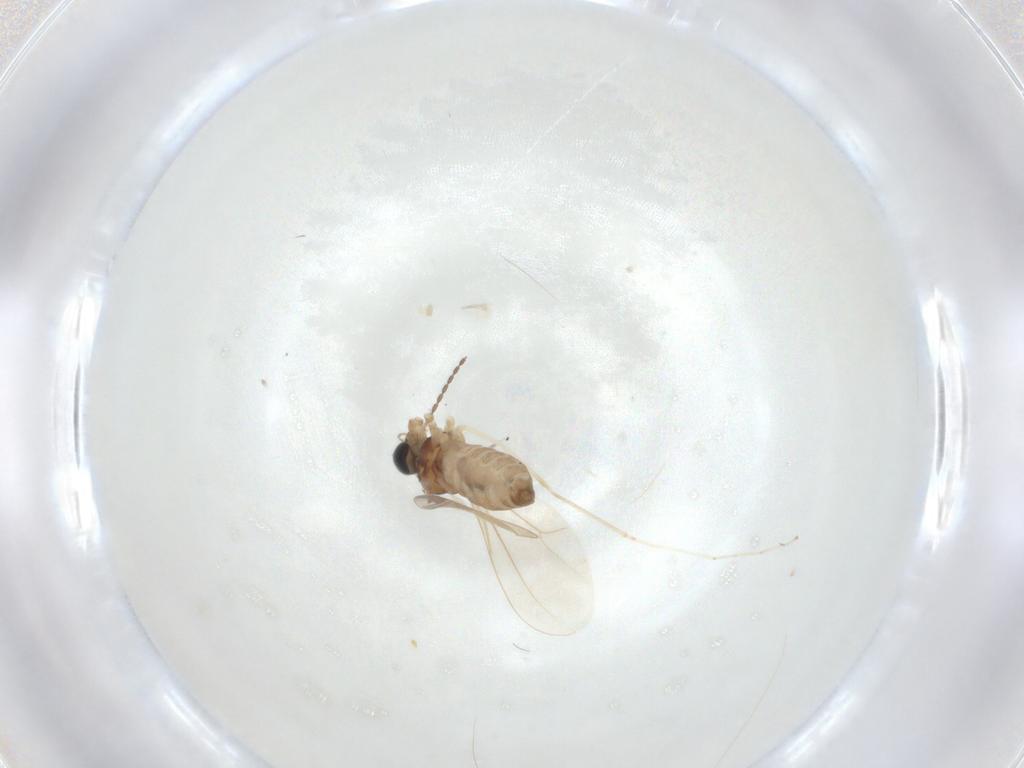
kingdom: Animalia
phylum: Arthropoda
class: Insecta
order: Diptera
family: Cecidomyiidae
